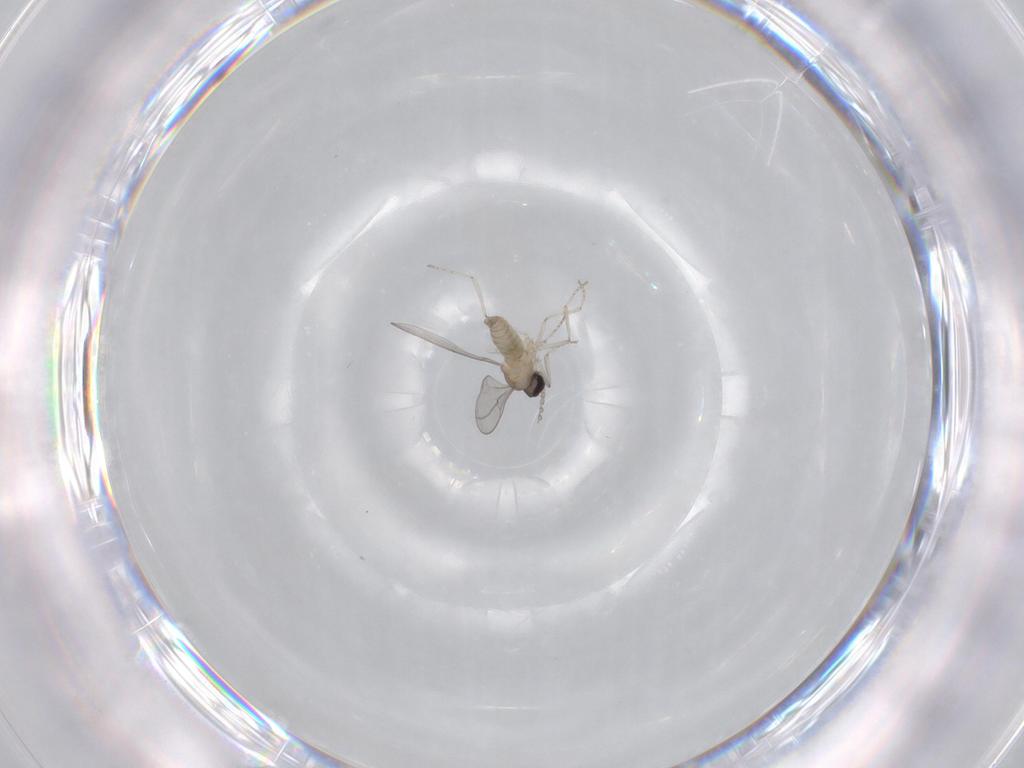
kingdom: Animalia
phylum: Arthropoda
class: Insecta
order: Diptera
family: Cecidomyiidae
